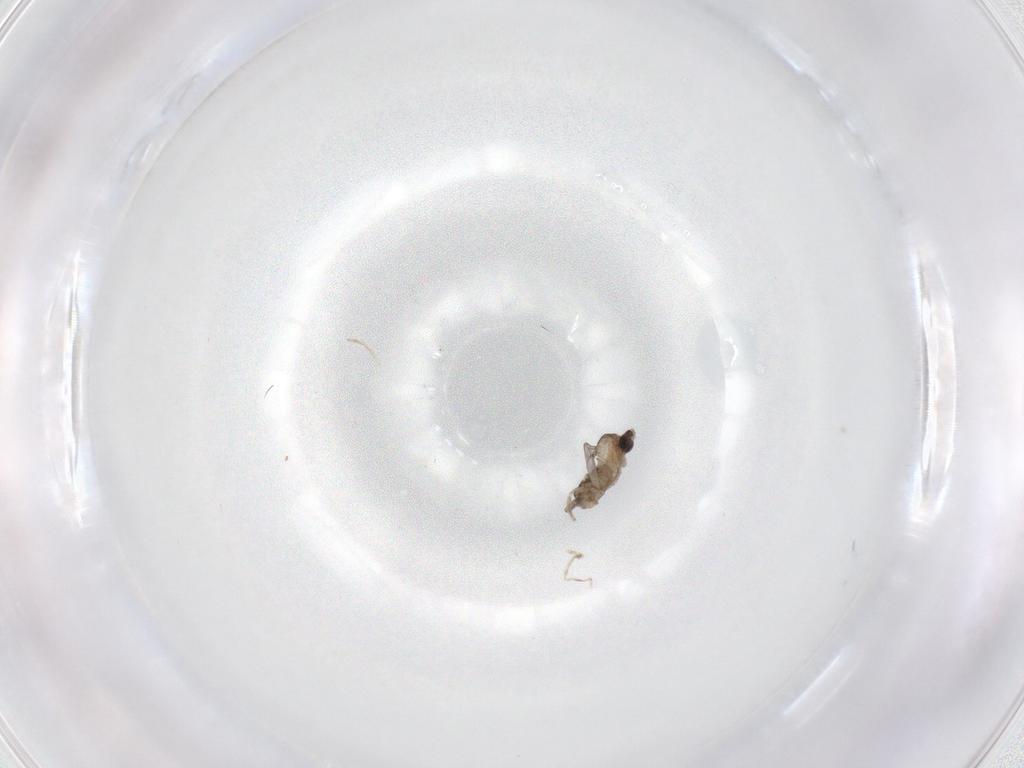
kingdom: Animalia
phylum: Arthropoda
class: Insecta
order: Diptera
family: Cecidomyiidae
